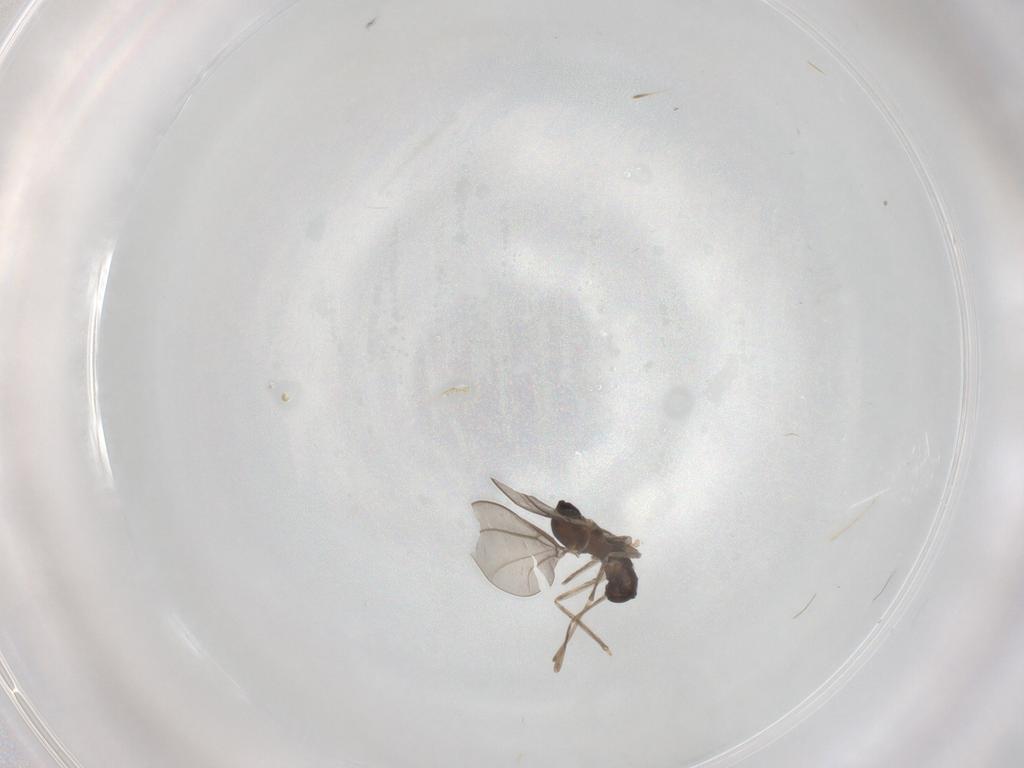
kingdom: Animalia
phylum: Arthropoda
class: Insecta
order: Diptera
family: Cecidomyiidae
